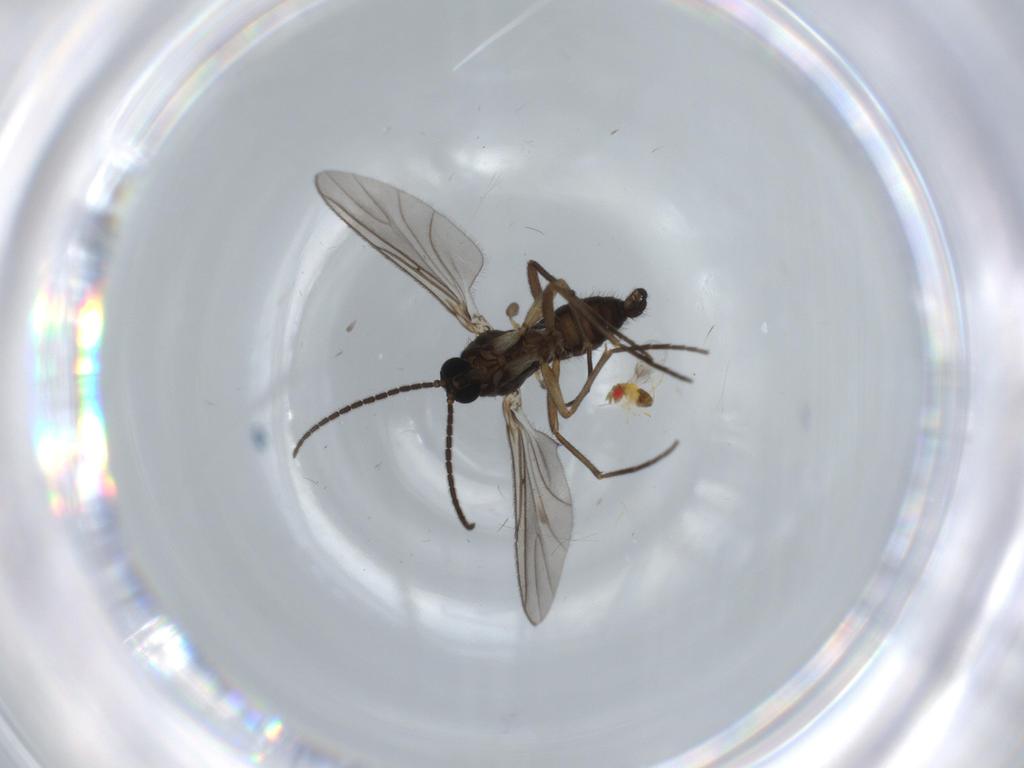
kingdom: Animalia
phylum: Arthropoda
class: Insecta
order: Diptera
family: Sciaridae
